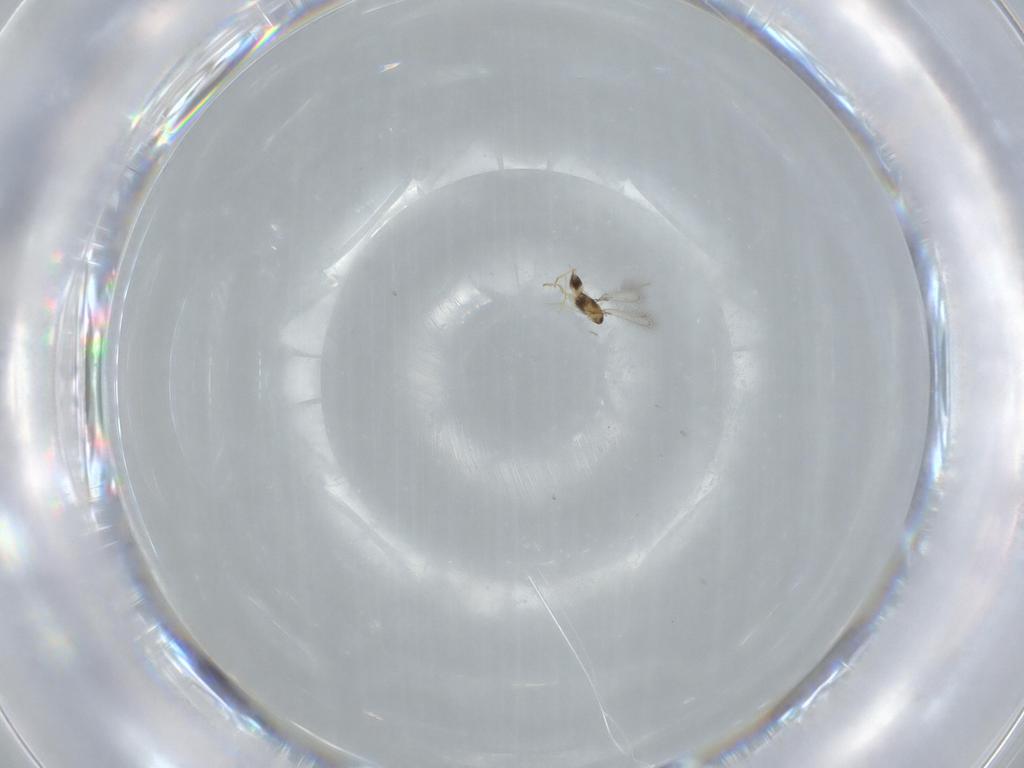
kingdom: Animalia
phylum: Arthropoda
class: Insecta
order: Hymenoptera
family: Mymaridae
